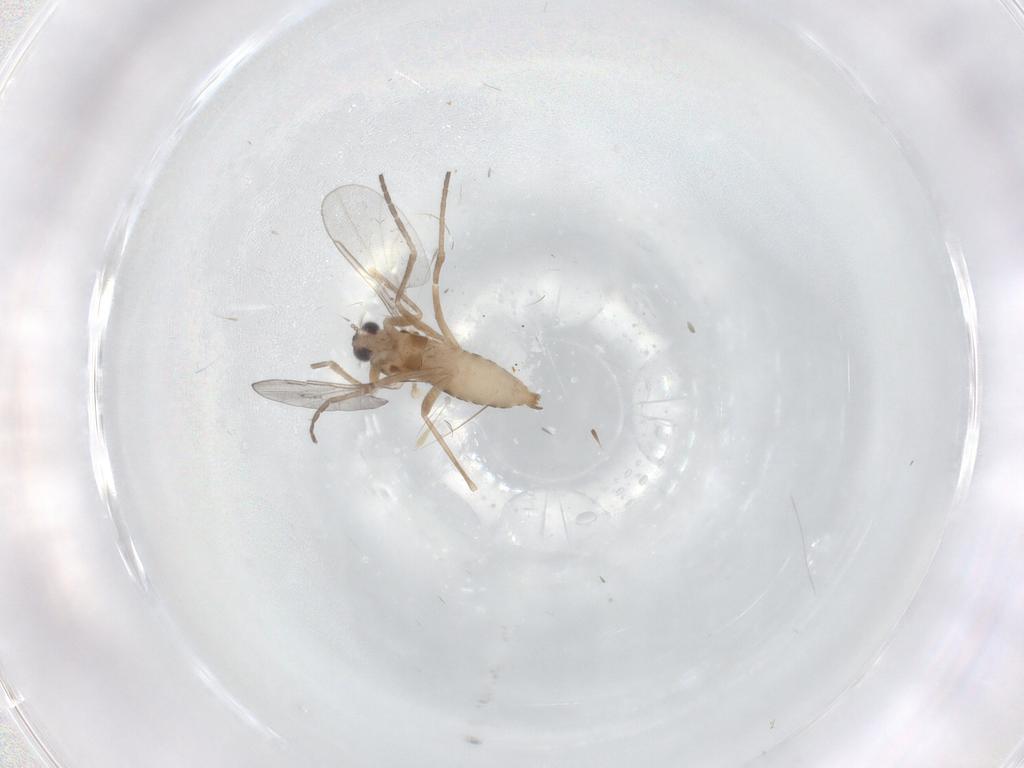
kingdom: Animalia
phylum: Arthropoda
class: Insecta
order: Diptera
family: Cecidomyiidae
